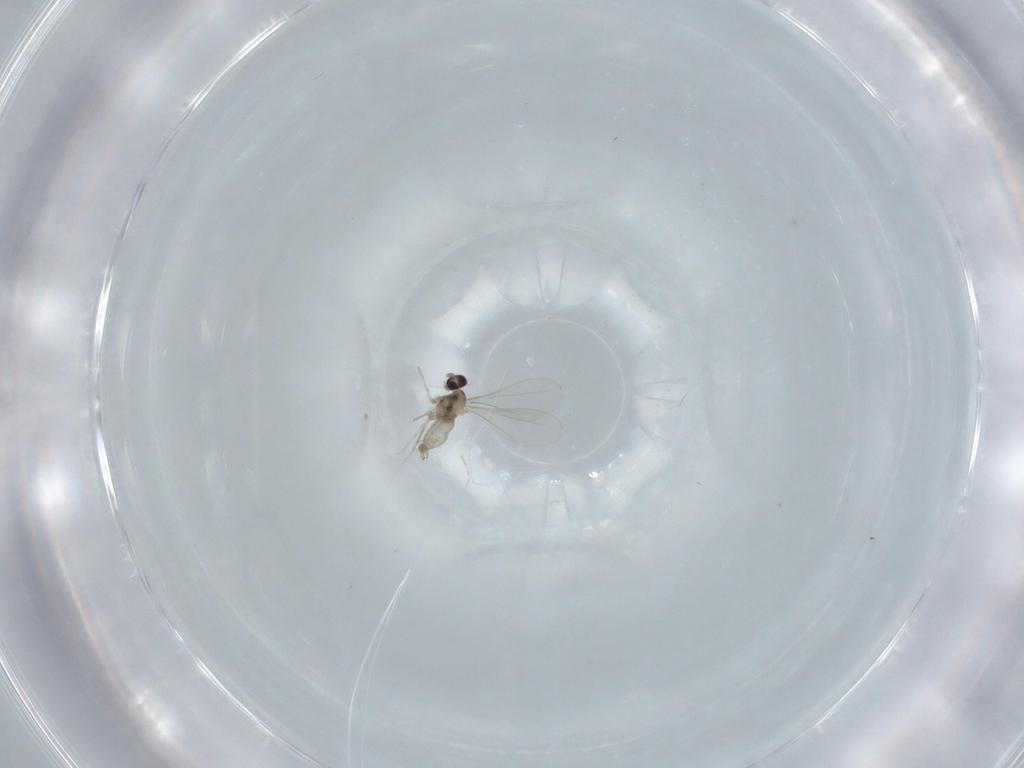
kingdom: Animalia
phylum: Arthropoda
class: Insecta
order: Diptera
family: Cecidomyiidae
